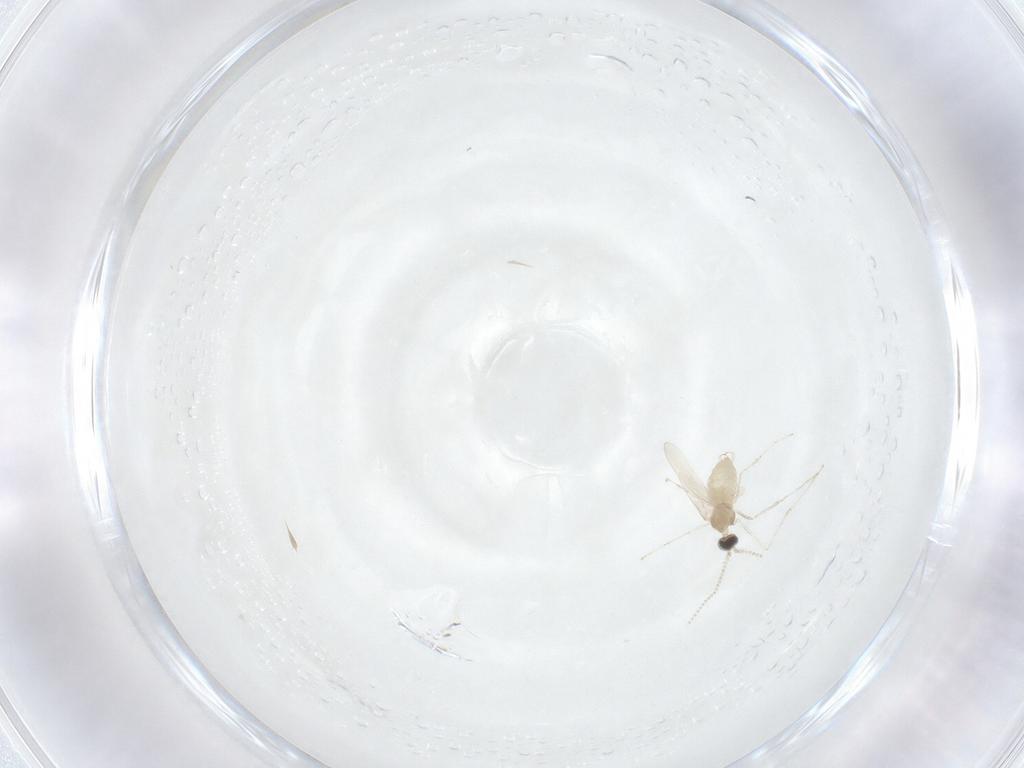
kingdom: Animalia
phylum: Arthropoda
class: Insecta
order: Diptera
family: Cecidomyiidae
